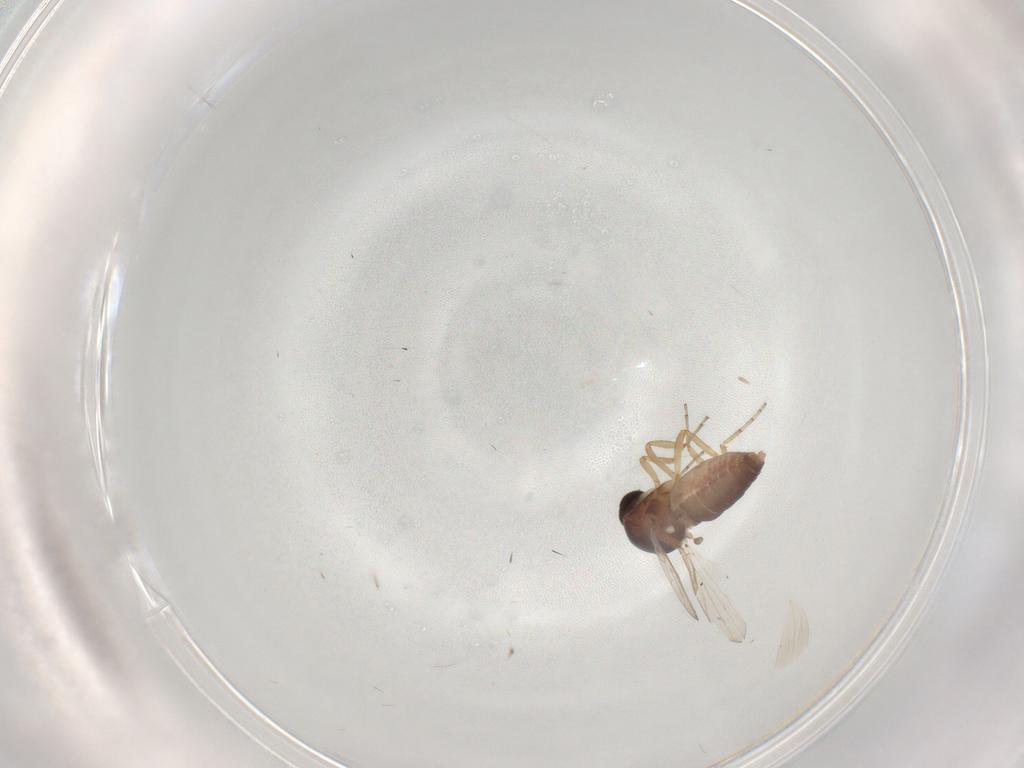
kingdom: Animalia
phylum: Arthropoda
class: Insecta
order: Diptera
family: Ceratopogonidae
